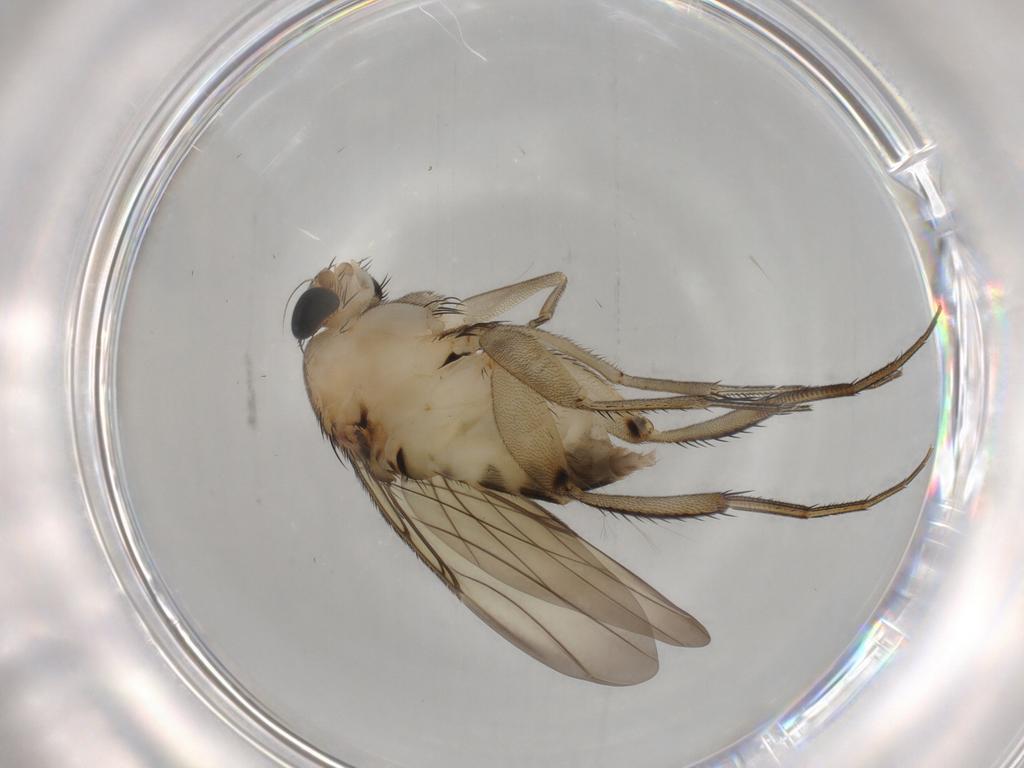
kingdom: Animalia
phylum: Arthropoda
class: Insecta
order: Diptera
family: Phoridae
